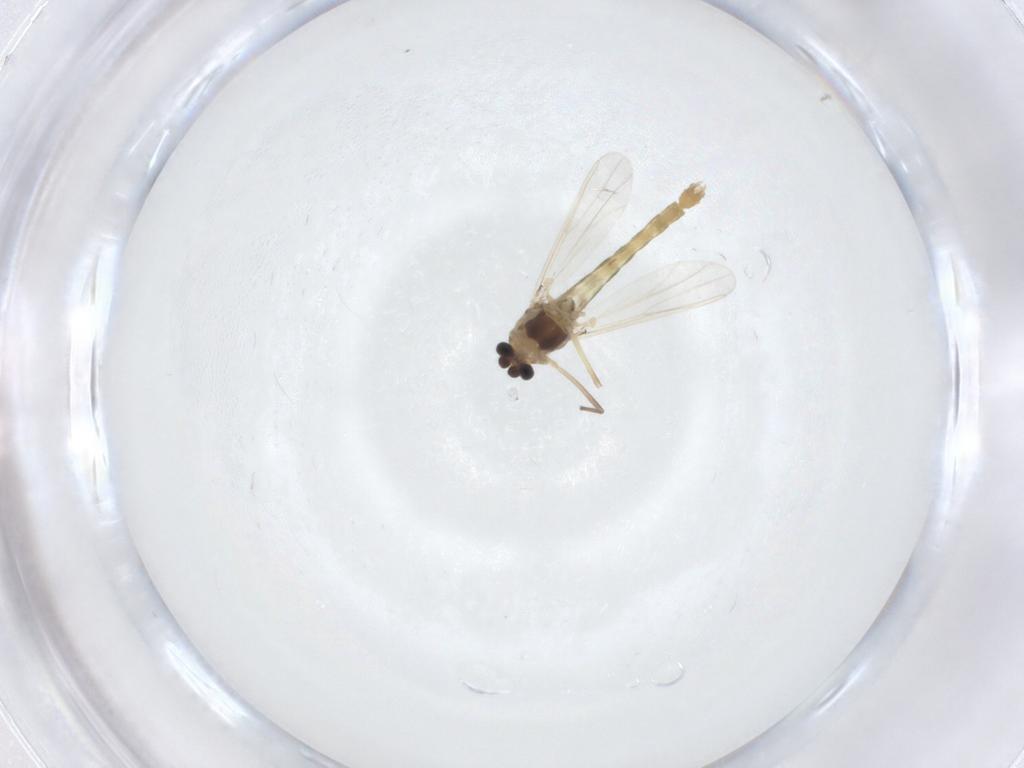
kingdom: Animalia
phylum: Arthropoda
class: Insecta
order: Diptera
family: Chironomidae
